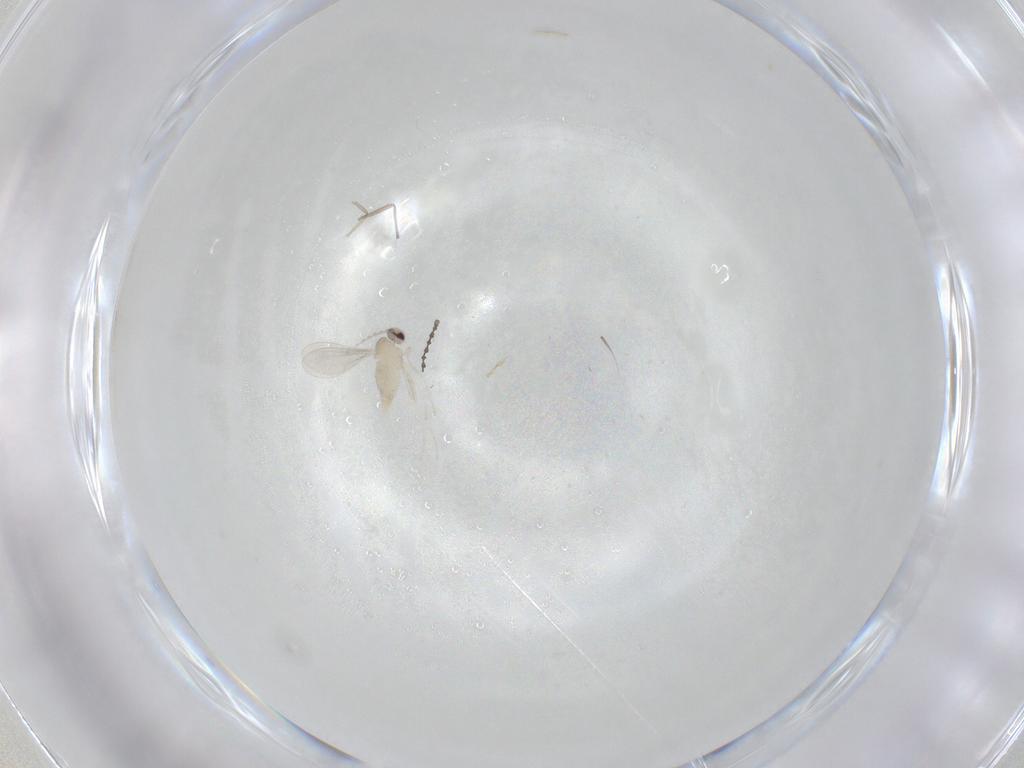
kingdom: Animalia
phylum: Arthropoda
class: Insecta
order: Diptera
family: Cecidomyiidae
